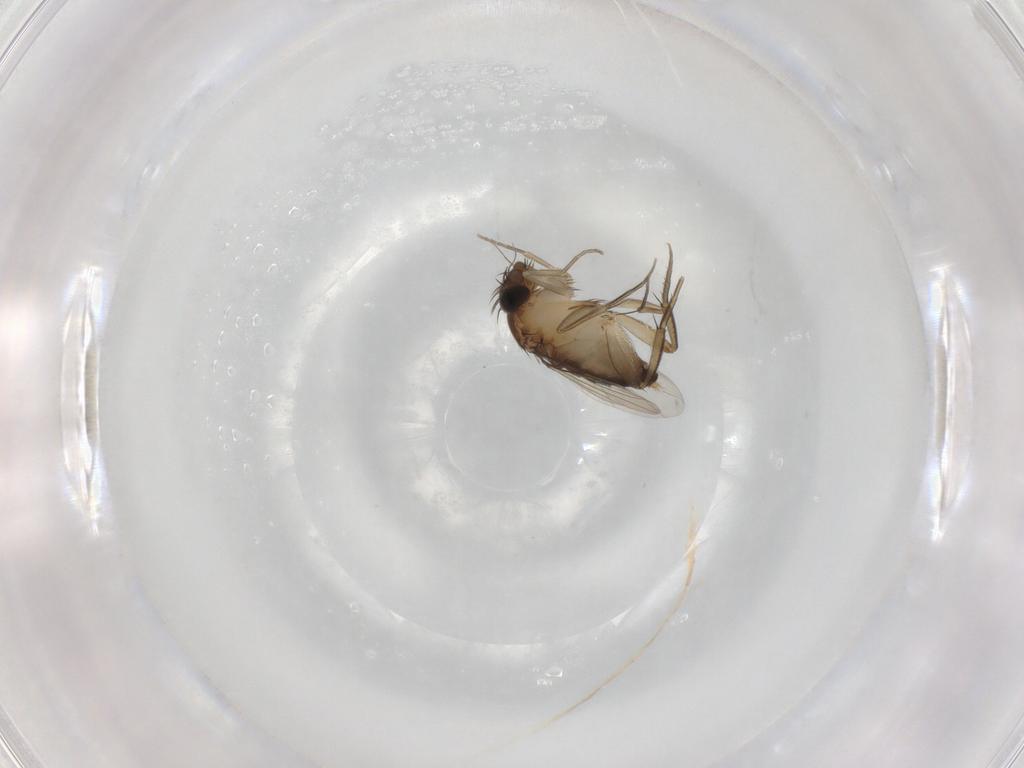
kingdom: Animalia
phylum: Arthropoda
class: Insecta
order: Diptera
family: Phoridae
